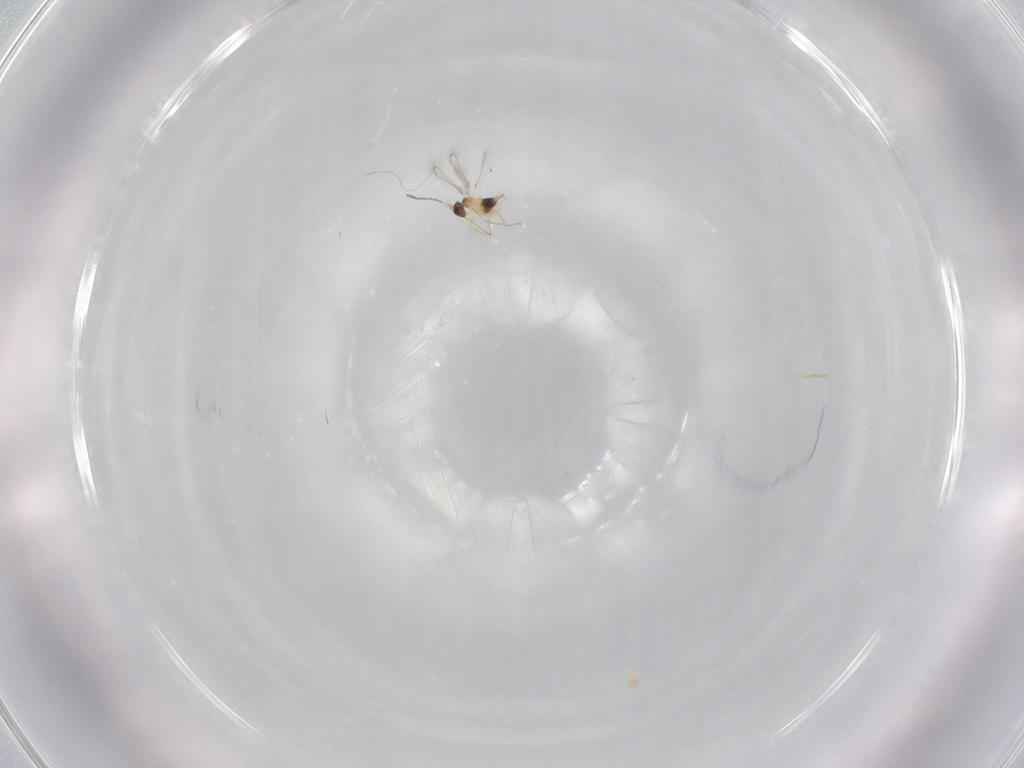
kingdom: Animalia
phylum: Arthropoda
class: Insecta
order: Hymenoptera
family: Mymaridae
